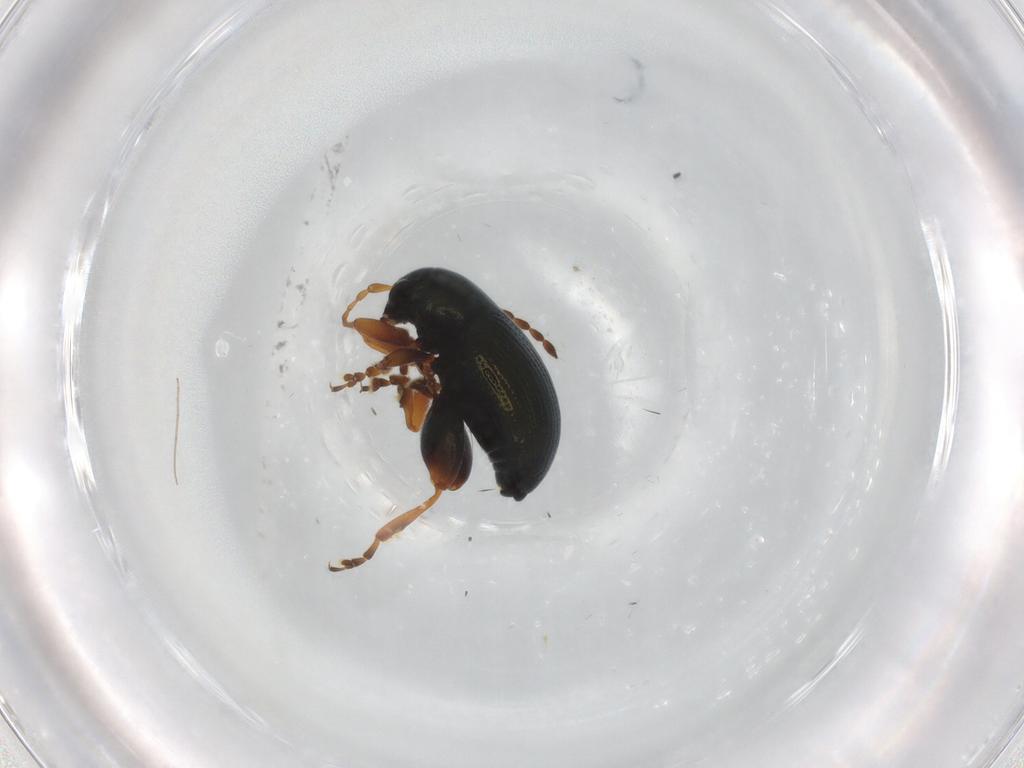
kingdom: Animalia
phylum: Arthropoda
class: Insecta
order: Coleoptera
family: Chrysomelidae
